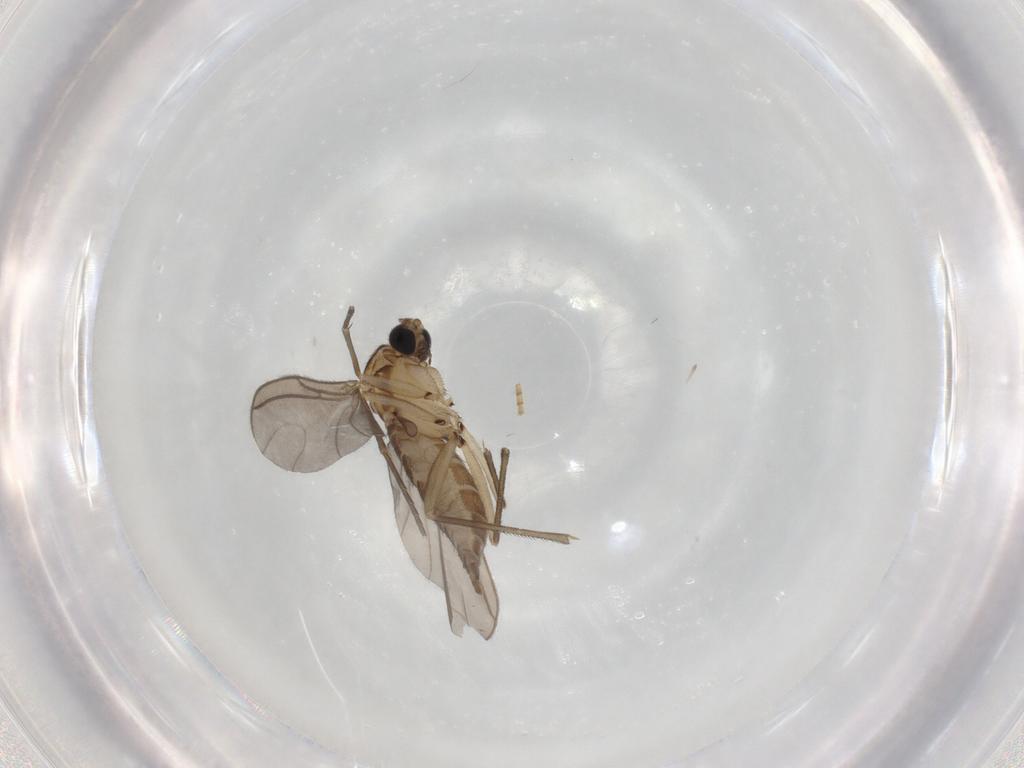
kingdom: Animalia
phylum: Arthropoda
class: Insecta
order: Diptera
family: Sciaridae
